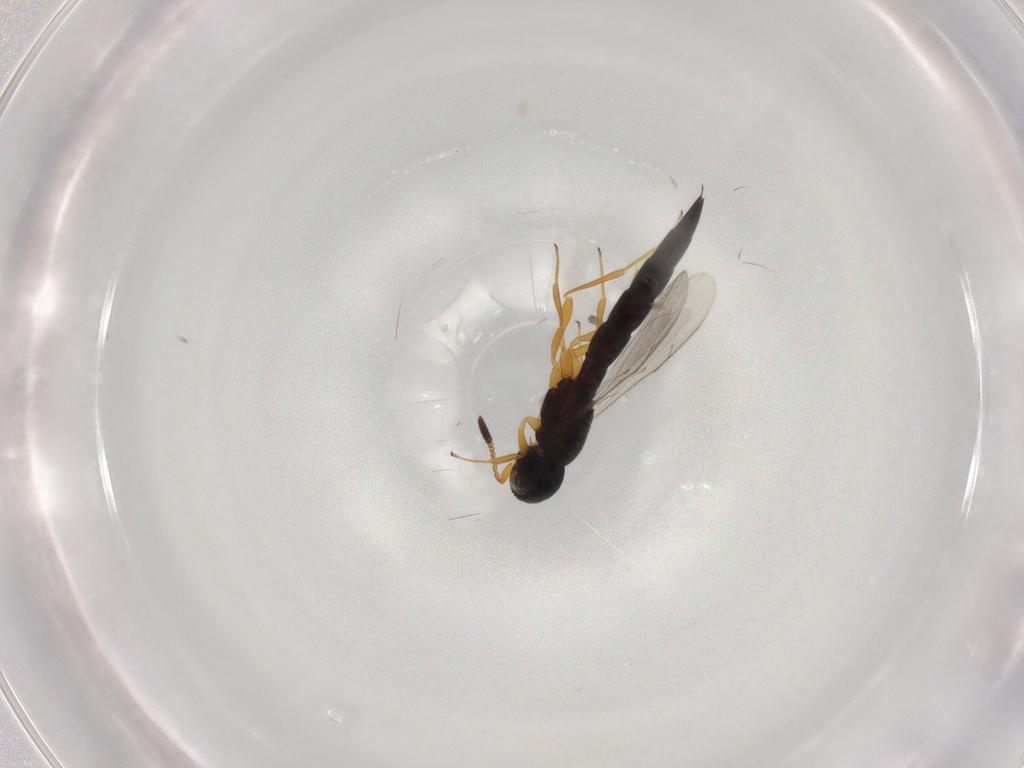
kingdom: Animalia
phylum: Arthropoda
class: Insecta
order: Hymenoptera
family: Scelionidae
